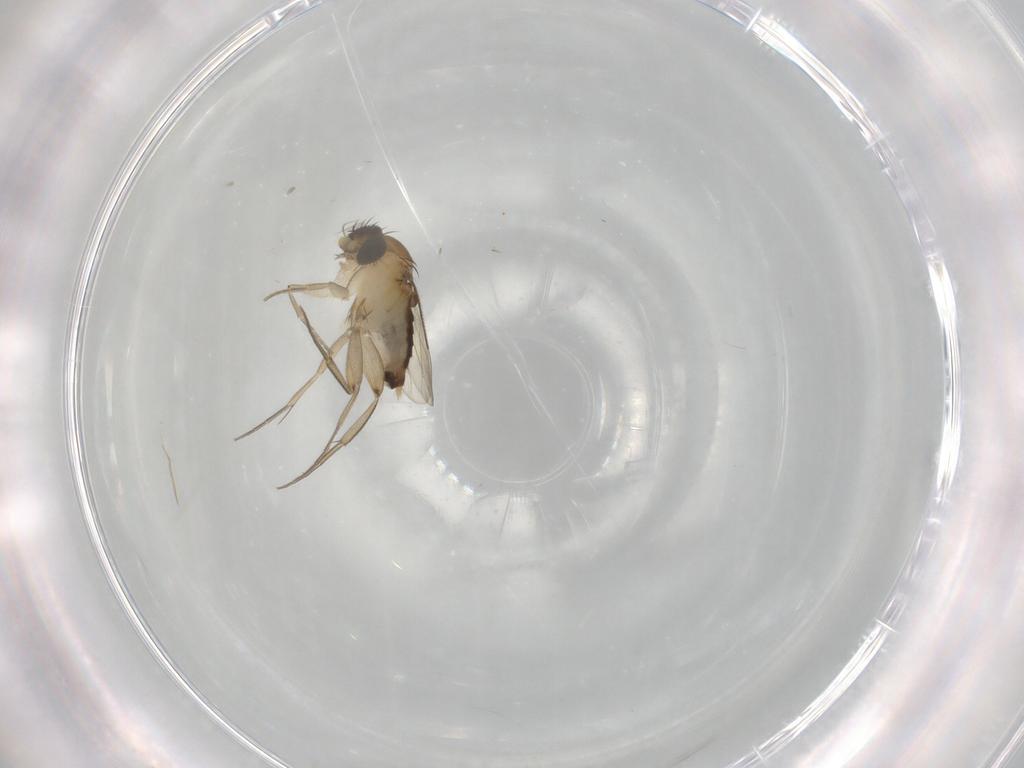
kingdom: Animalia
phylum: Arthropoda
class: Insecta
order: Diptera
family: Phoridae
